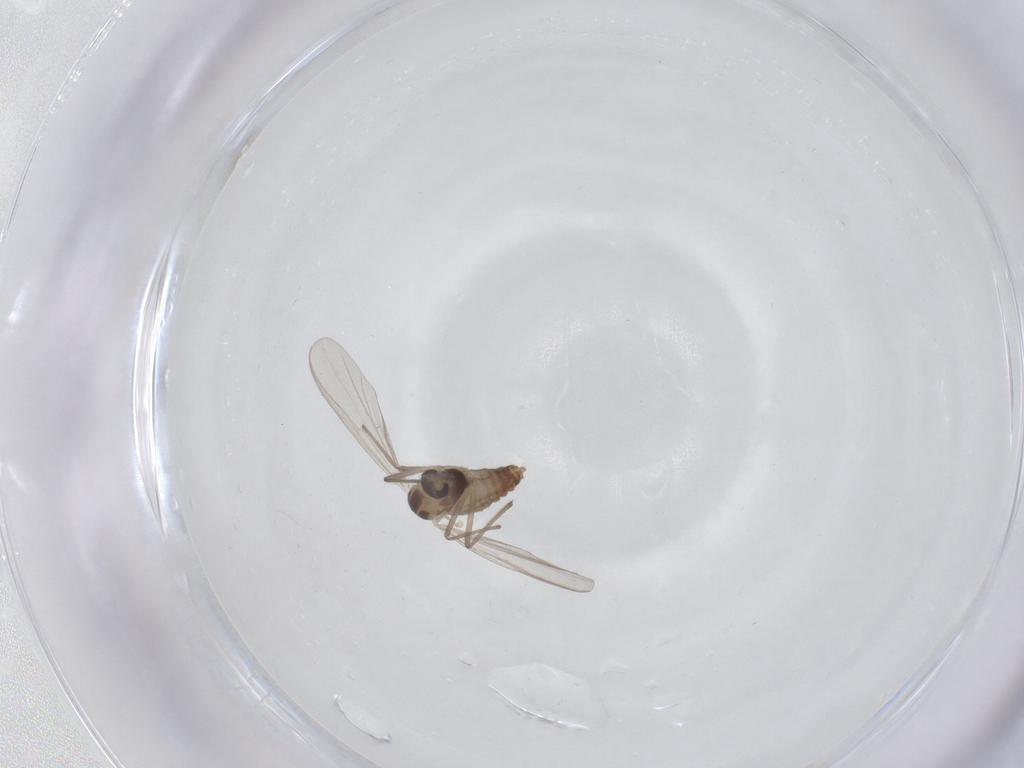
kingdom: Animalia
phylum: Arthropoda
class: Insecta
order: Diptera
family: Chironomidae
